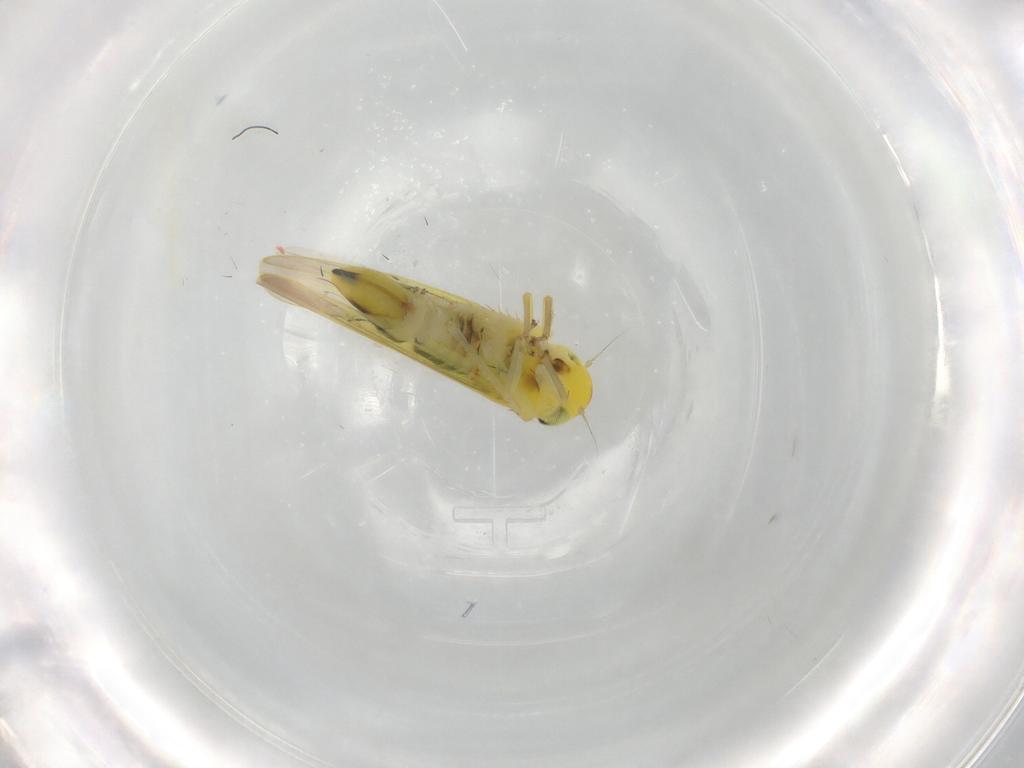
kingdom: Animalia
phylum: Arthropoda
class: Insecta
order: Hemiptera
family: Cicadellidae
